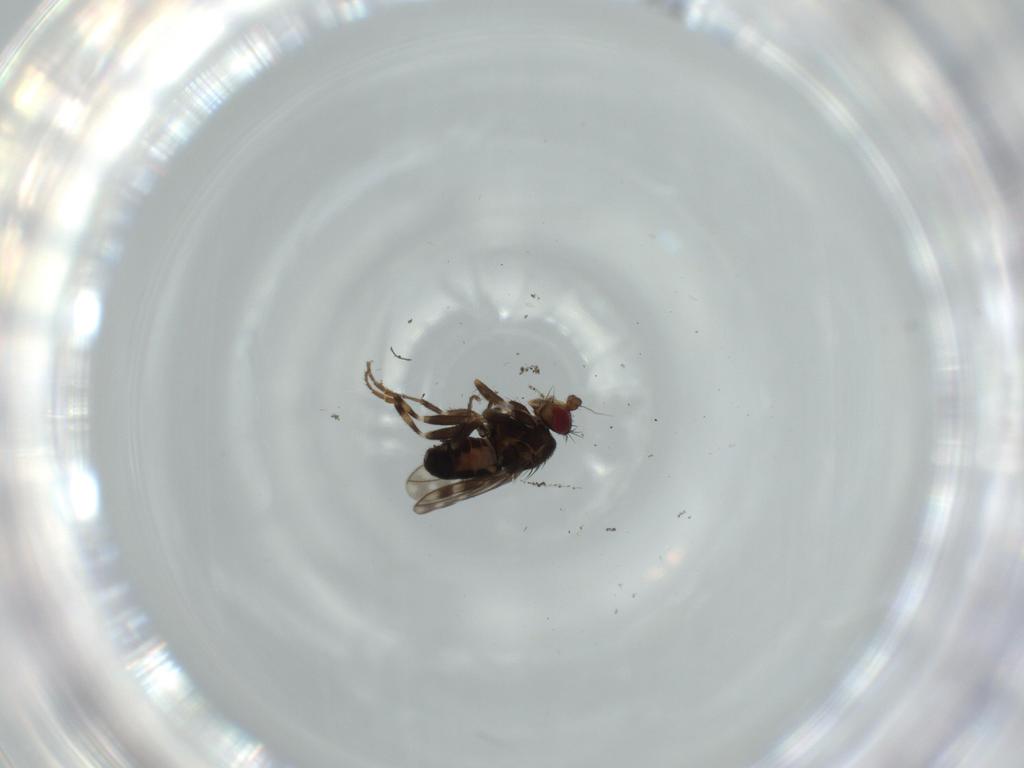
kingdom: Animalia
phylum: Arthropoda
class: Insecta
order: Diptera
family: Sphaeroceridae
